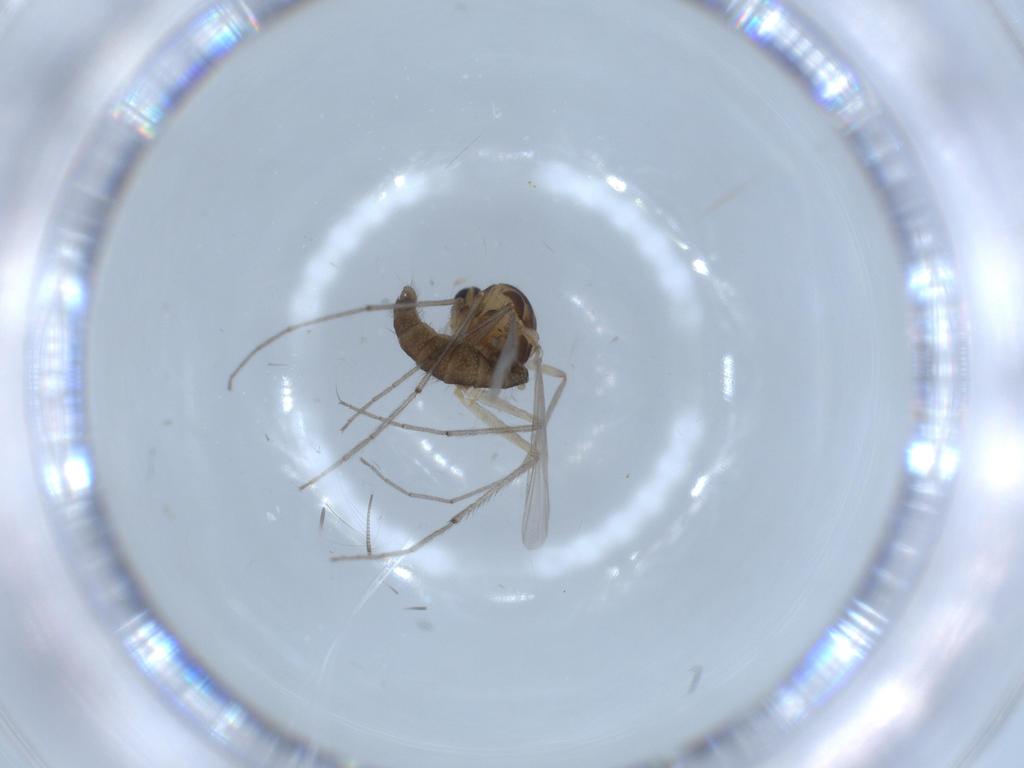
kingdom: Animalia
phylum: Arthropoda
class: Insecta
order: Diptera
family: Chironomidae
